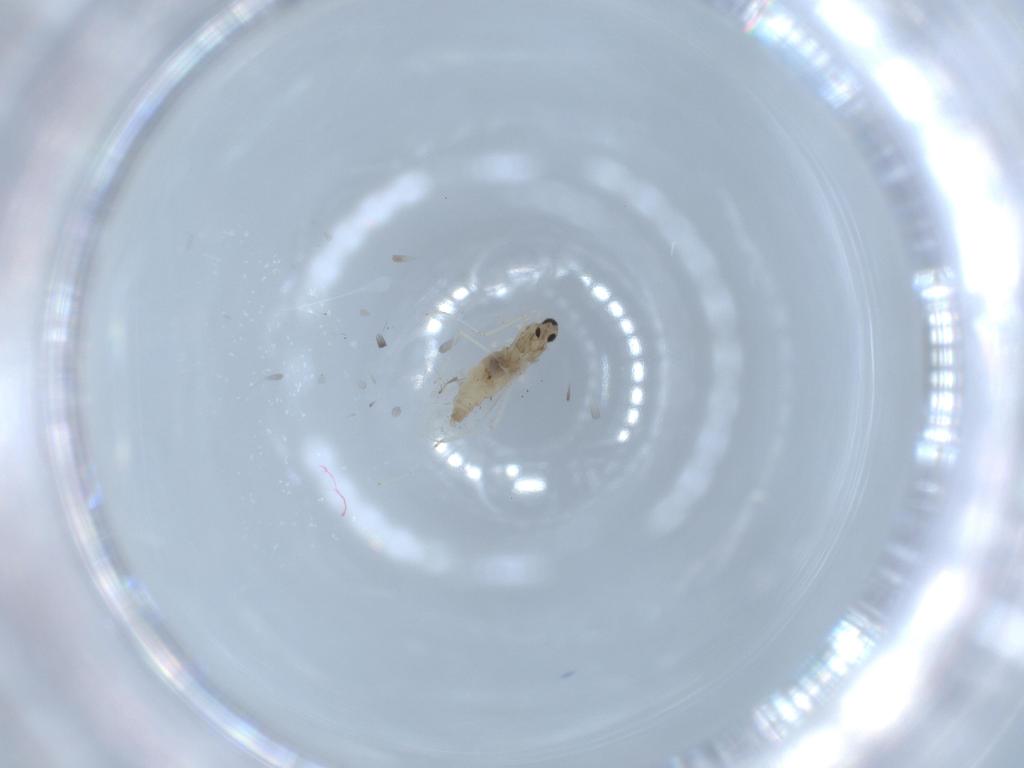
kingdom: Animalia
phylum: Arthropoda
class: Insecta
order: Diptera
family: Cecidomyiidae
